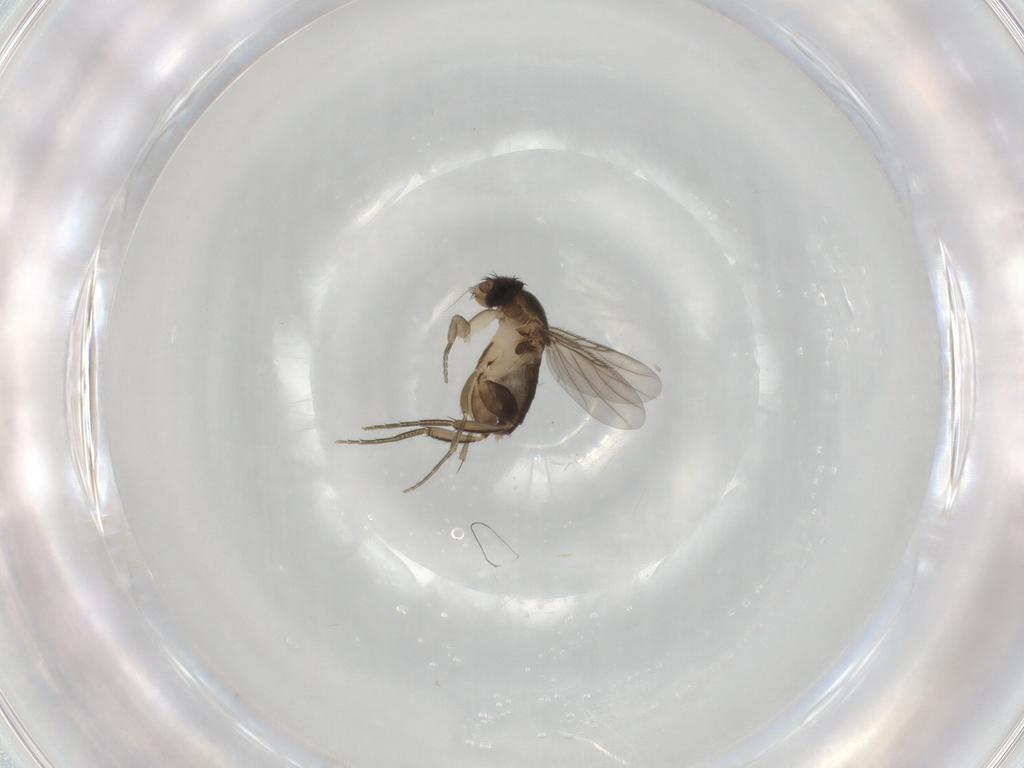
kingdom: Animalia
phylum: Arthropoda
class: Insecta
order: Diptera
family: Phoridae
